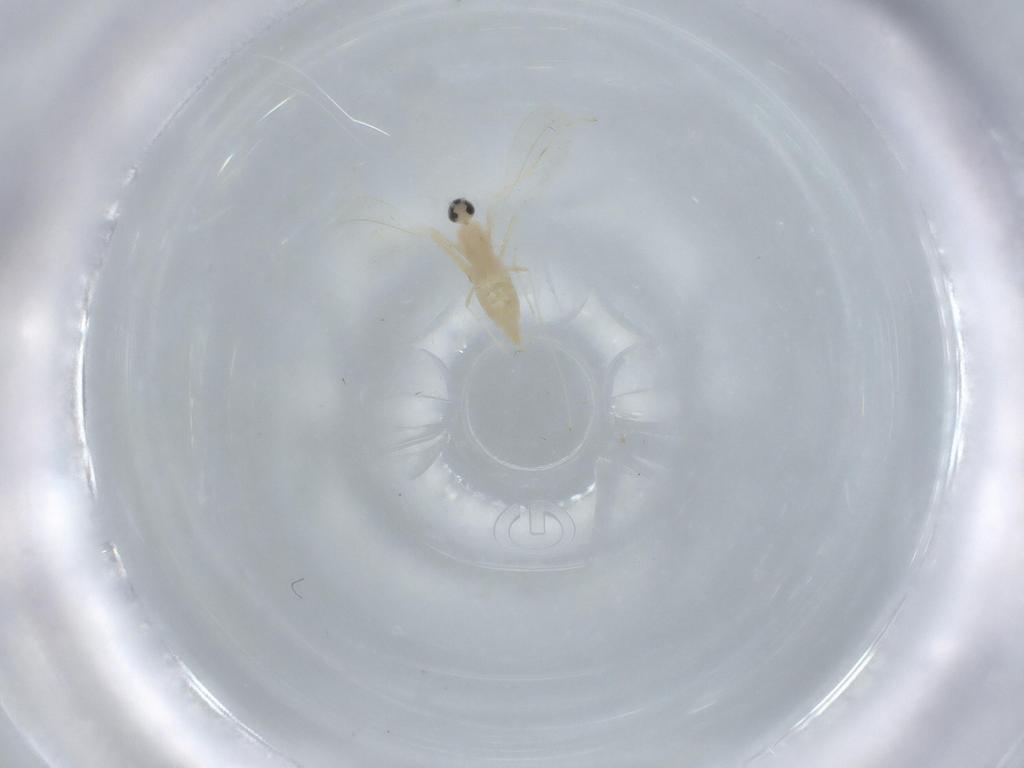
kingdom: Animalia
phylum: Arthropoda
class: Insecta
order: Diptera
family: Cecidomyiidae
